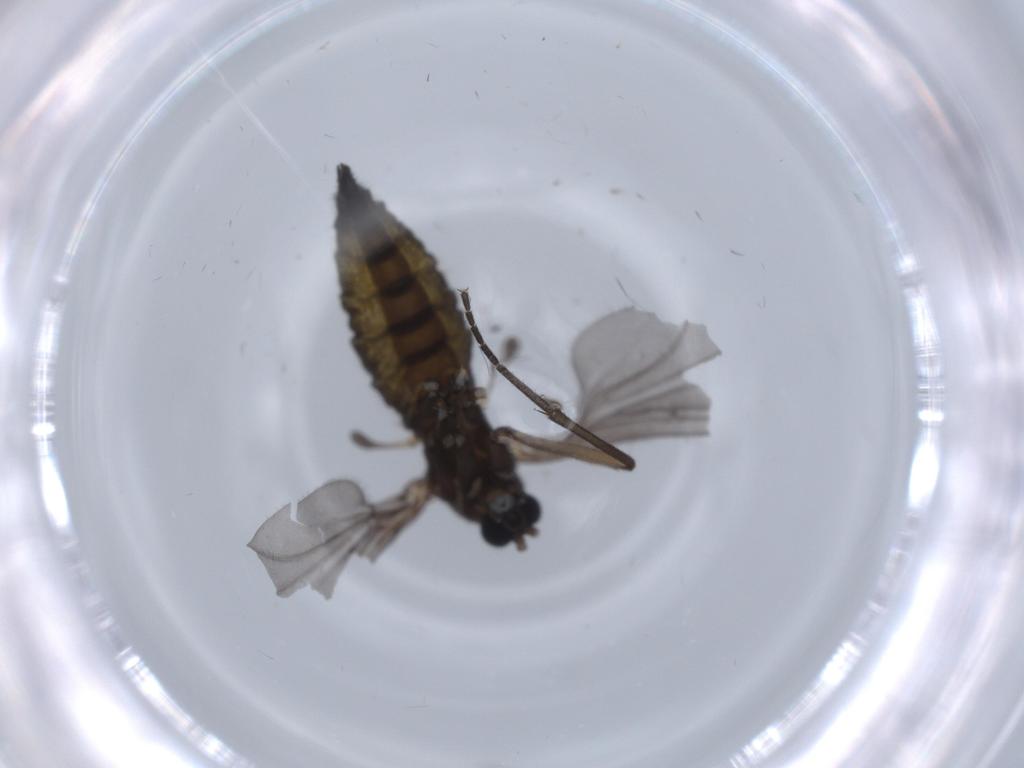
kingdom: Animalia
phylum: Arthropoda
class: Insecta
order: Diptera
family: Sciaridae
